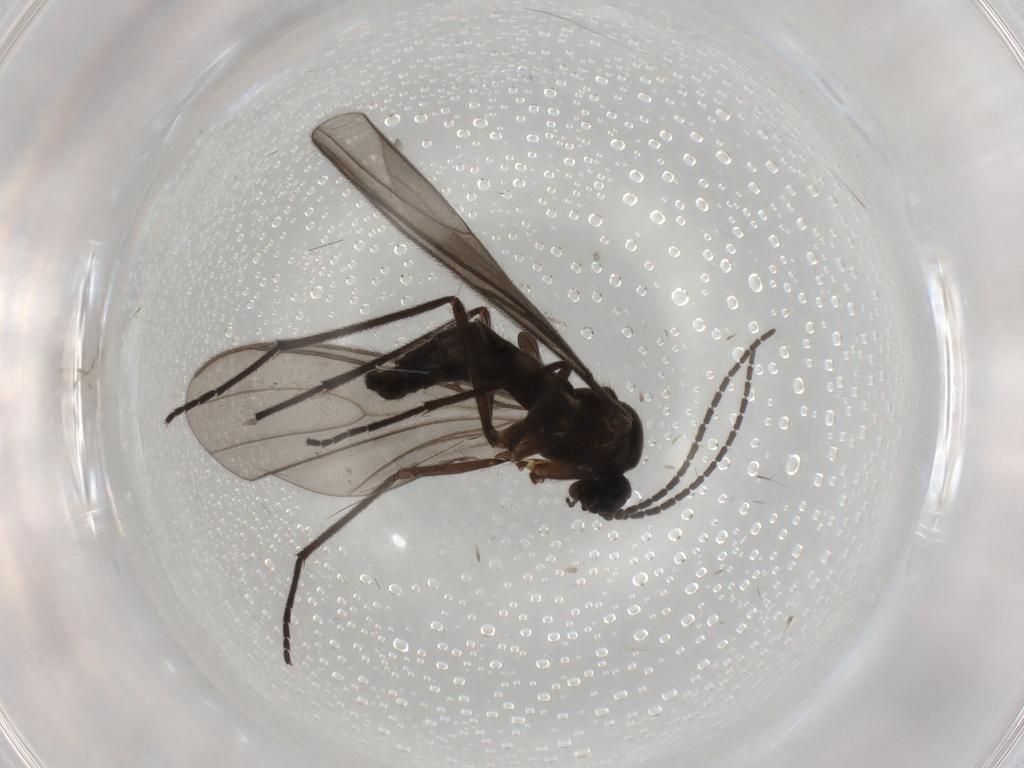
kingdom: Animalia
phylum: Arthropoda
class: Insecta
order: Diptera
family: Sciaridae
